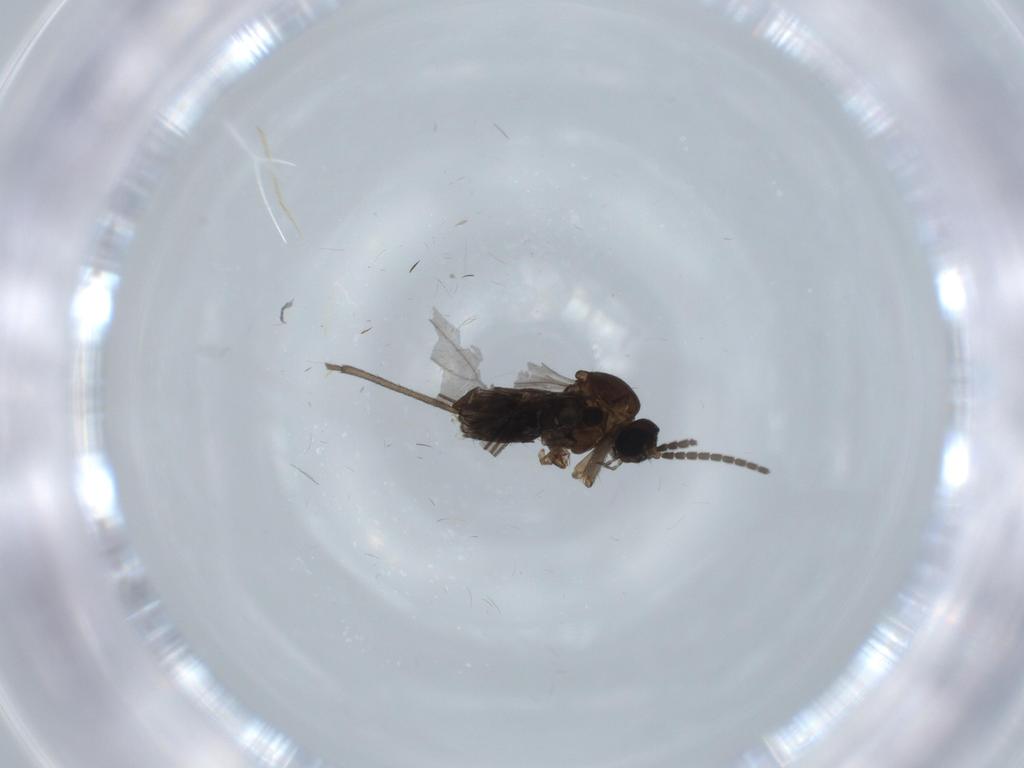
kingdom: Animalia
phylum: Arthropoda
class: Insecta
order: Diptera
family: Sciaridae
